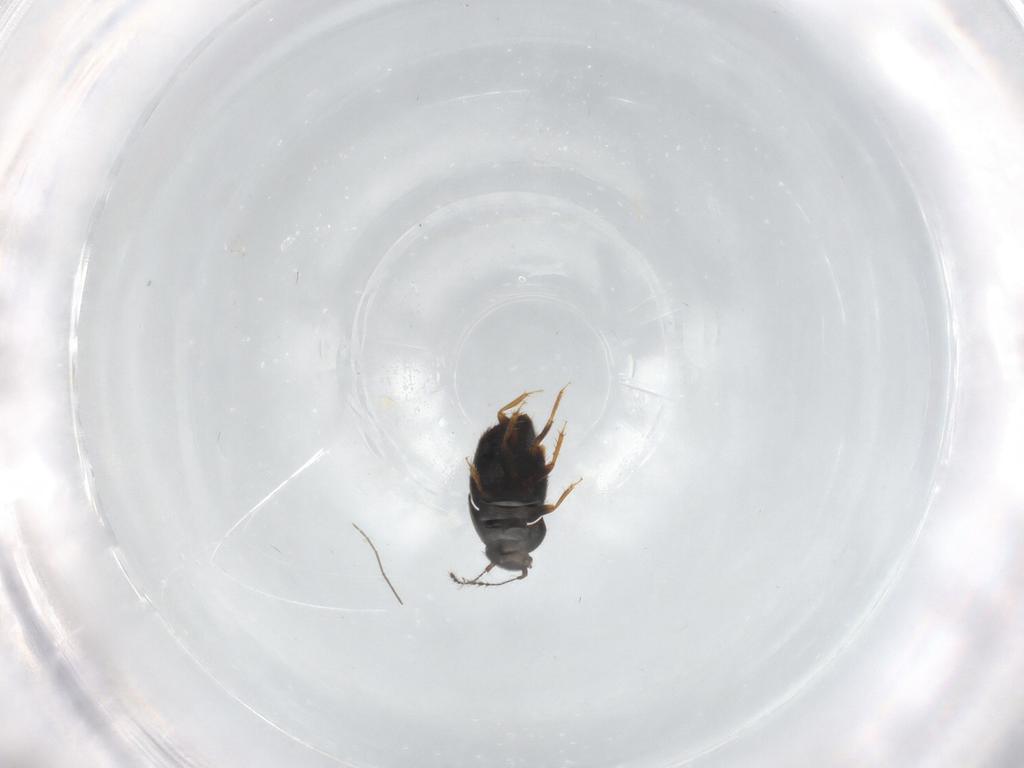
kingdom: Animalia
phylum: Arthropoda
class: Insecta
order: Coleoptera
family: Ptiliidae
